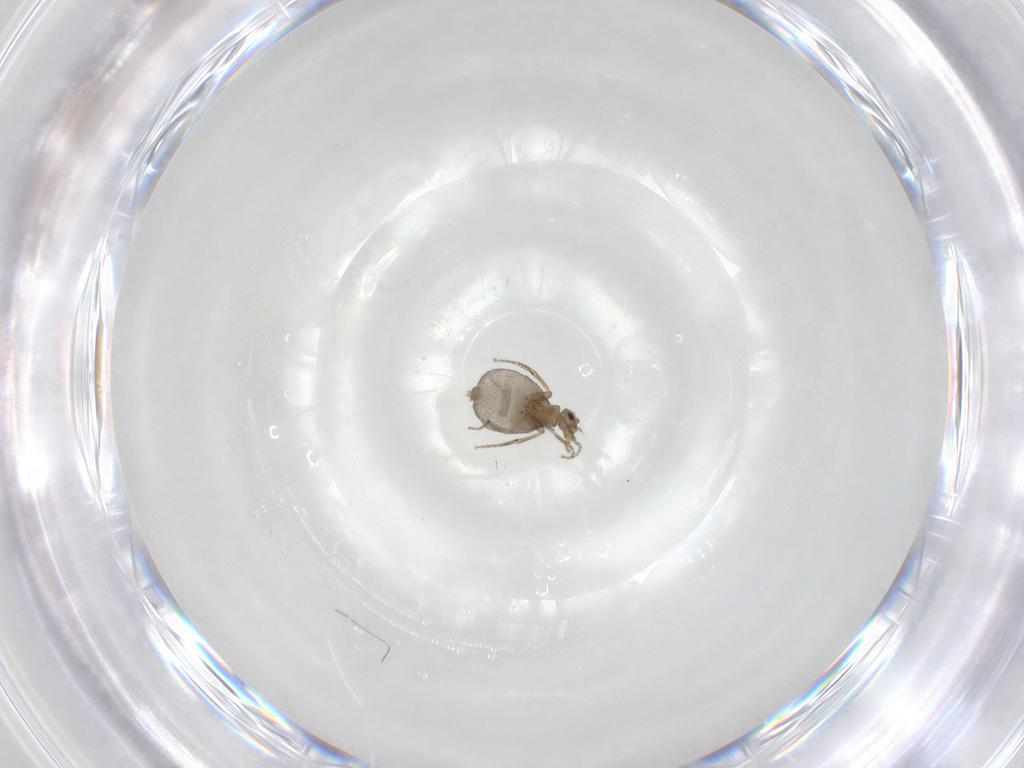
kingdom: Animalia
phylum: Arthropoda
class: Insecta
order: Diptera
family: Phoridae
